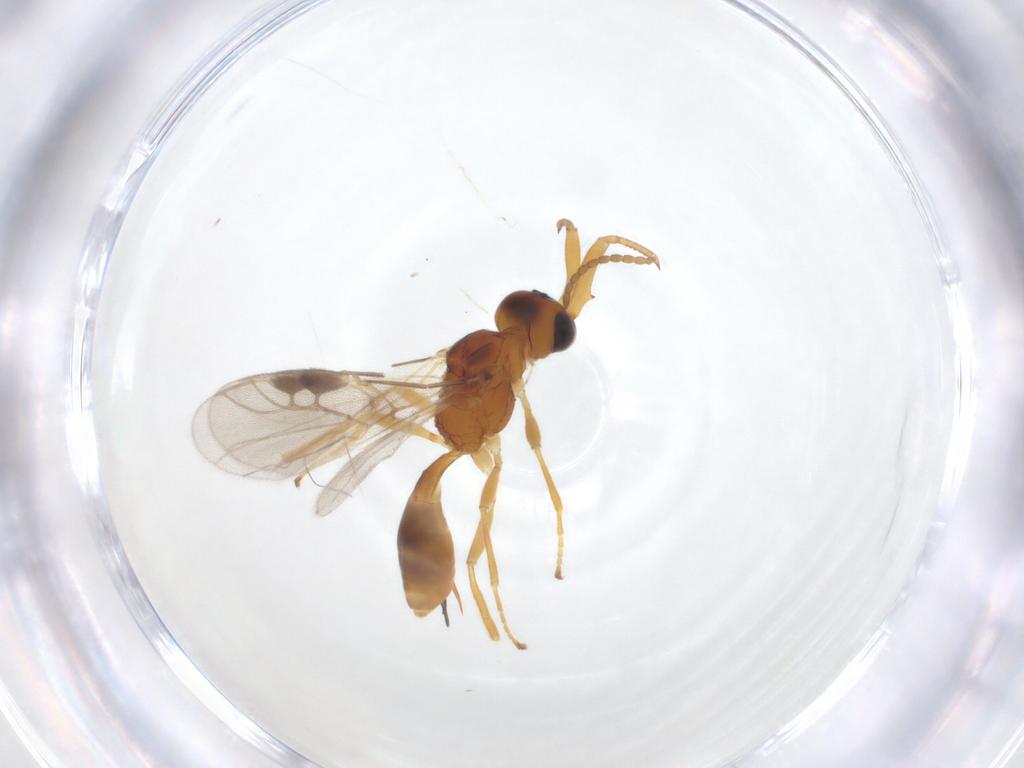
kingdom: Animalia
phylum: Arthropoda
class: Insecta
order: Hymenoptera
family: Braconidae
